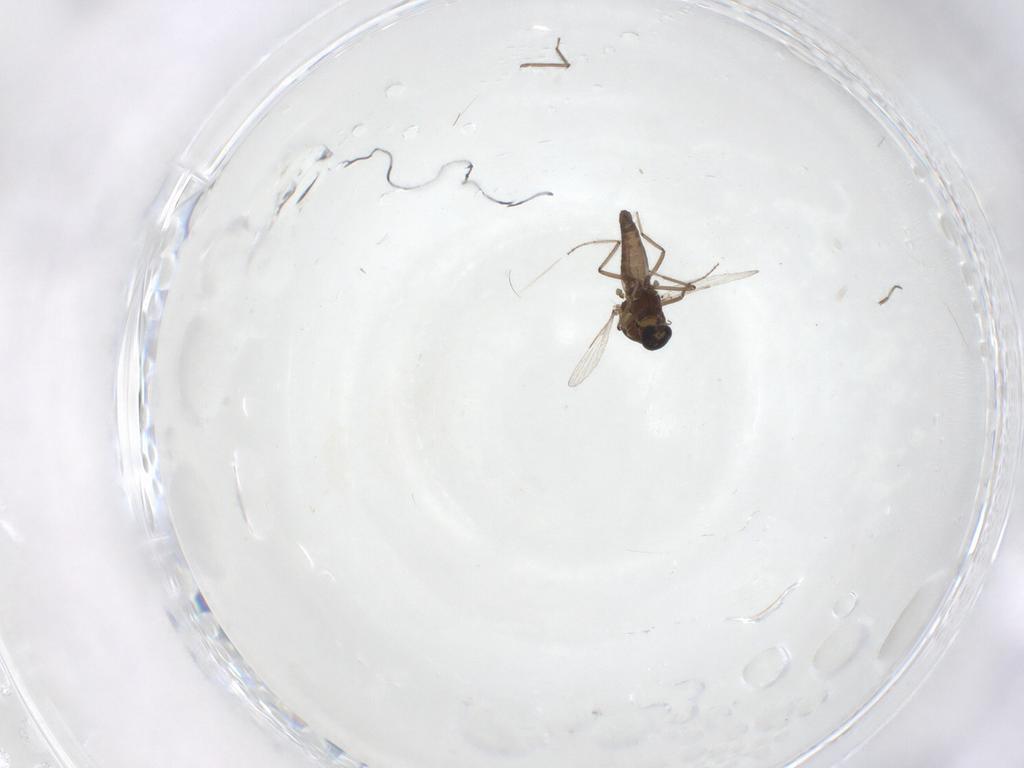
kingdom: Animalia
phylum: Arthropoda
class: Insecta
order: Diptera
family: Ceratopogonidae
